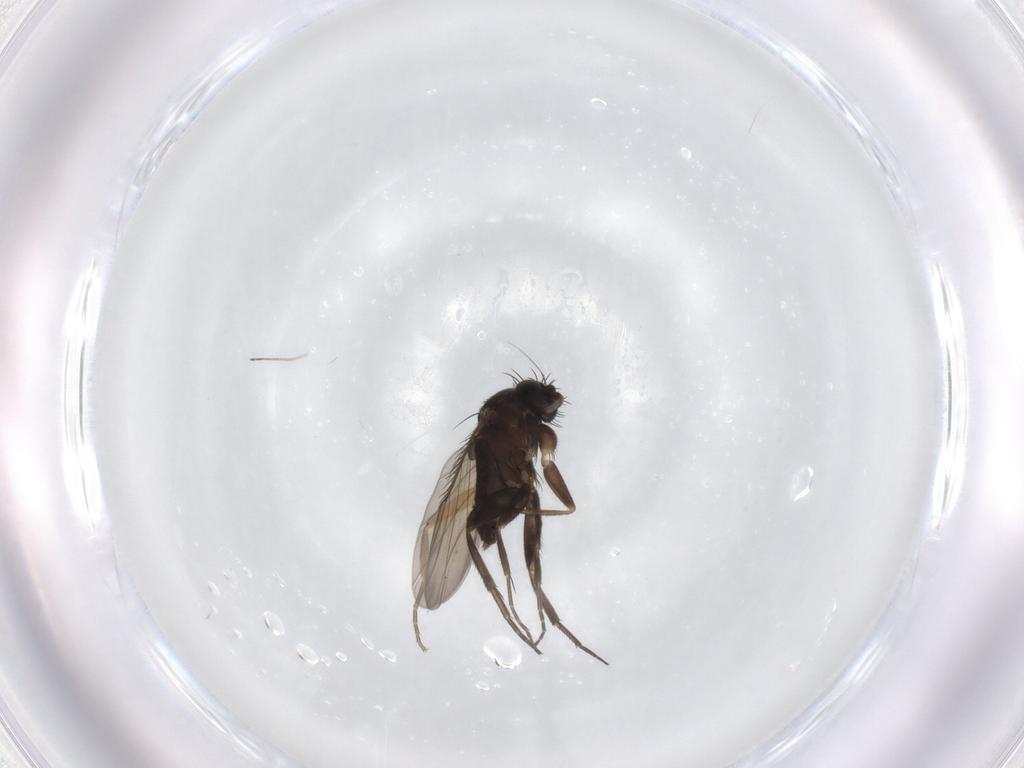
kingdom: Animalia
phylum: Arthropoda
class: Insecta
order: Diptera
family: Phoridae
